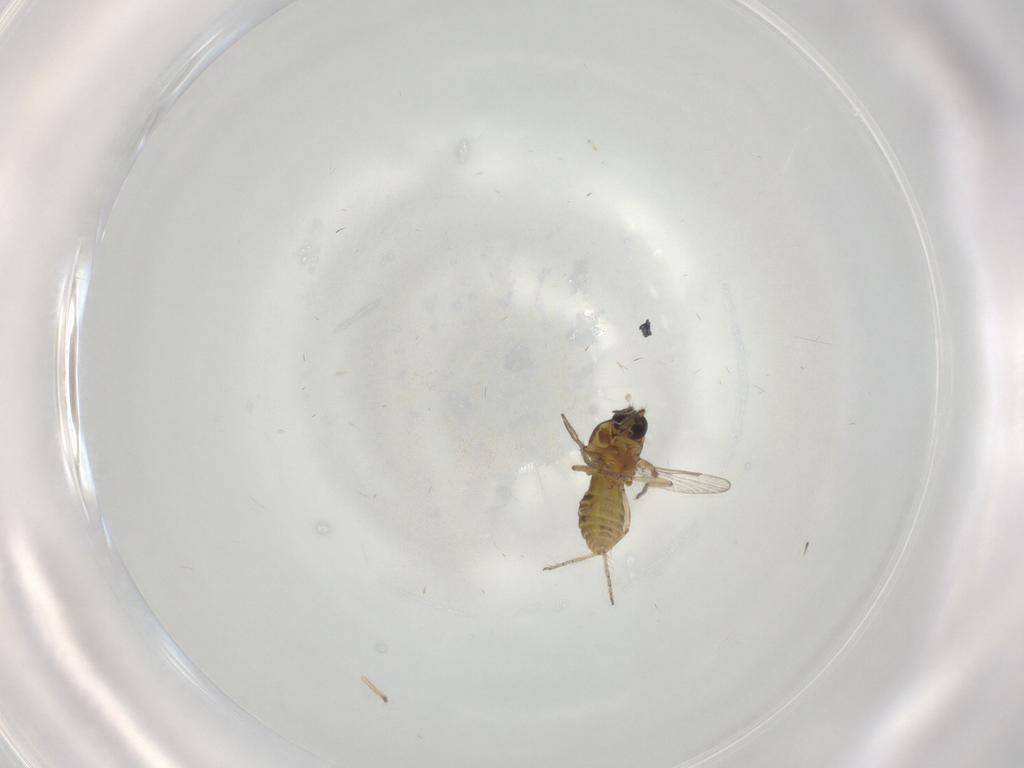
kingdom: Animalia
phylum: Arthropoda
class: Insecta
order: Diptera
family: Ceratopogonidae
